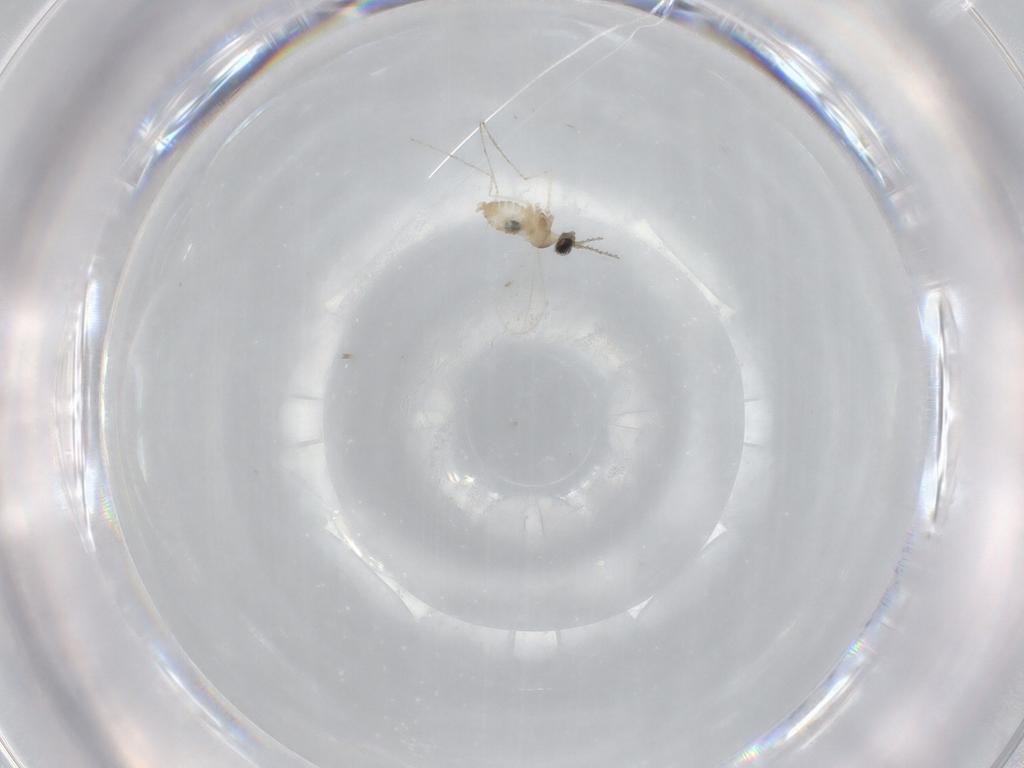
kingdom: Animalia
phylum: Arthropoda
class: Insecta
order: Diptera
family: Cecidomyiidae
